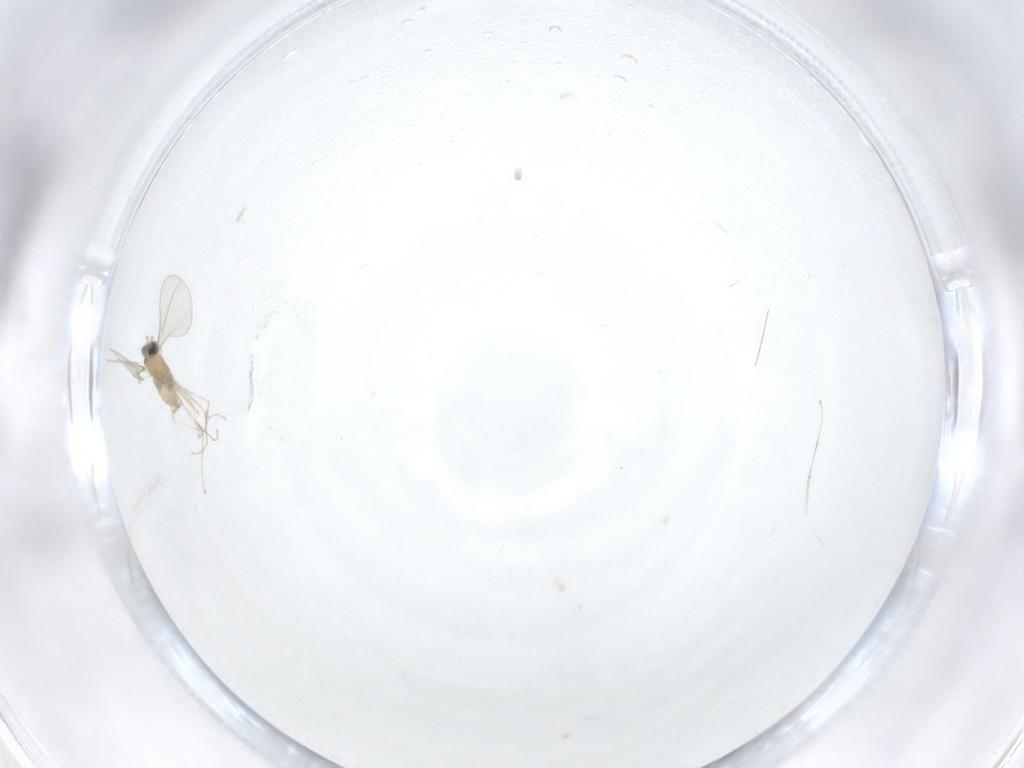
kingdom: Animalia
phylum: Arthropoda
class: Insecta
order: Diptera
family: Cecidomyiidae
